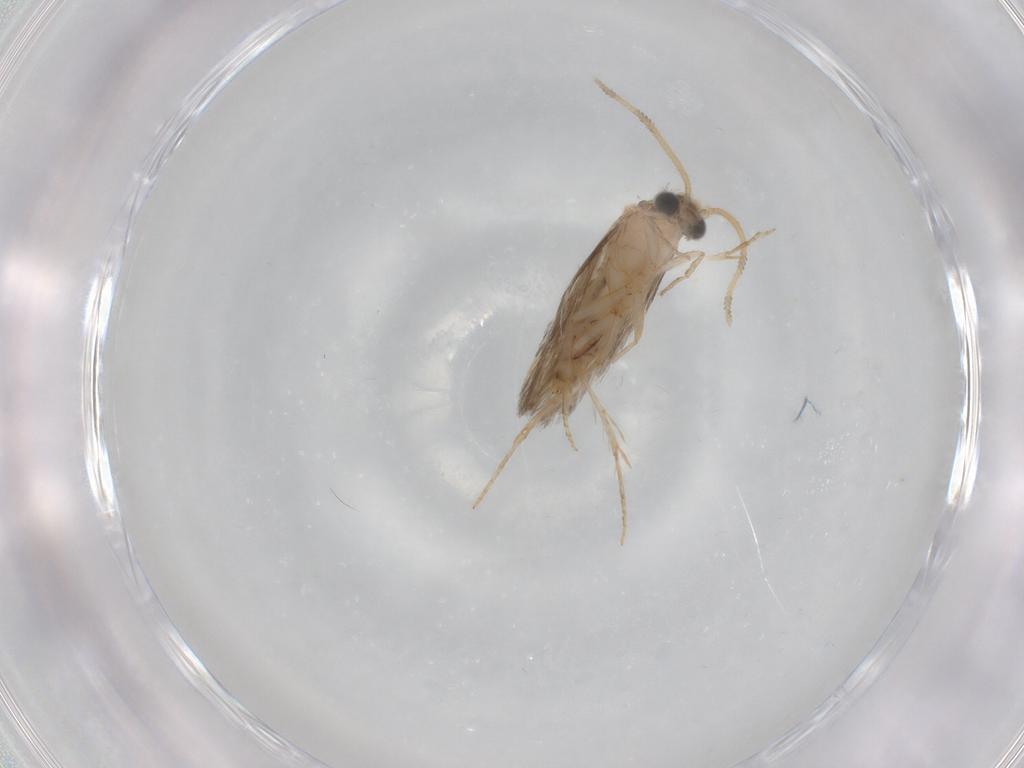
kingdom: Animalia
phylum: Arthropoda
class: Insecta
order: Trichoptera
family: Hydroptilidae
